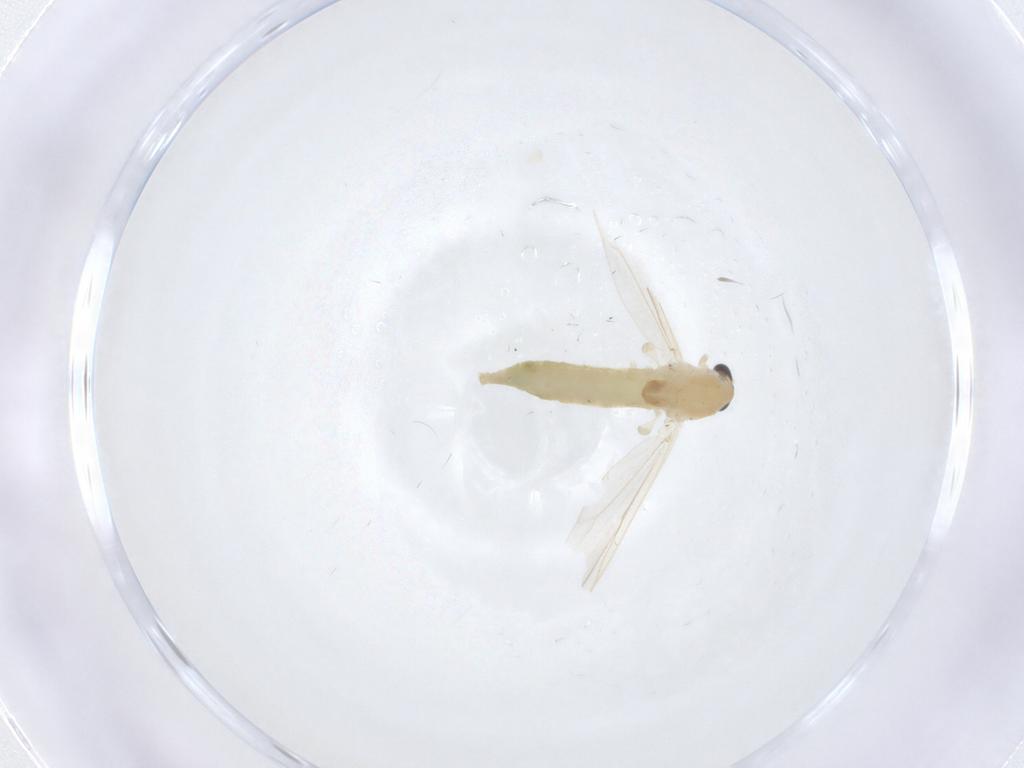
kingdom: Animalia
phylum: Arthropoda
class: Insecta
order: Diptera
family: Chironomidae
